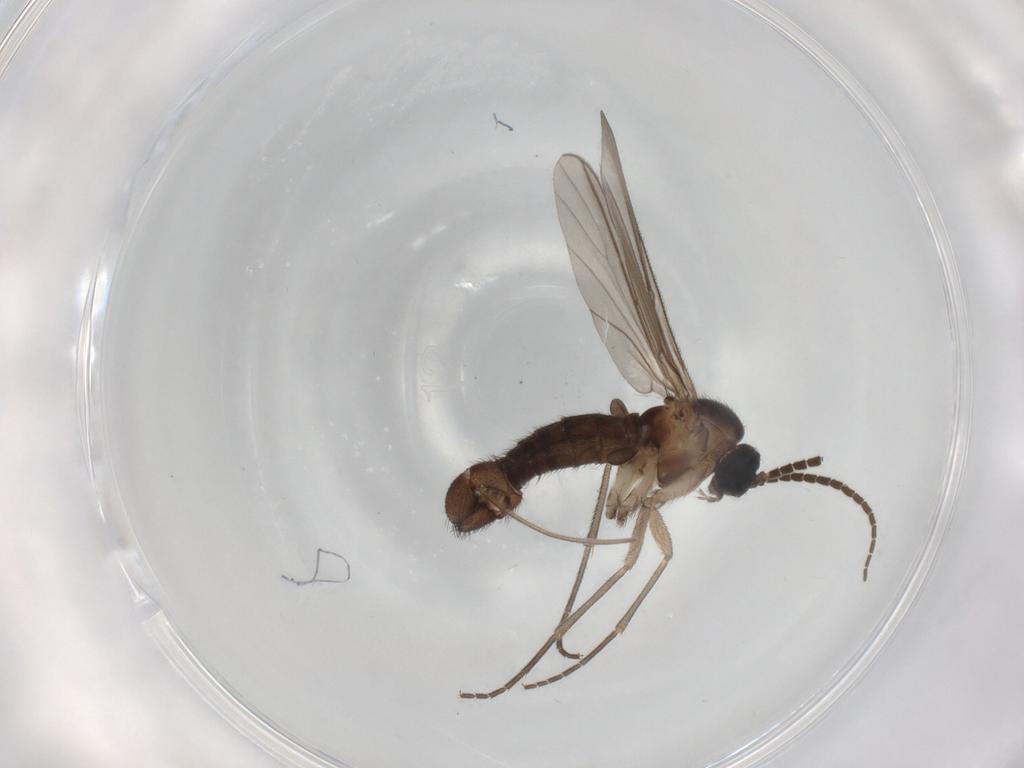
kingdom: Animalia
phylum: Arthropoda
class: Insecta
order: Diptera
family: Sciaridae
